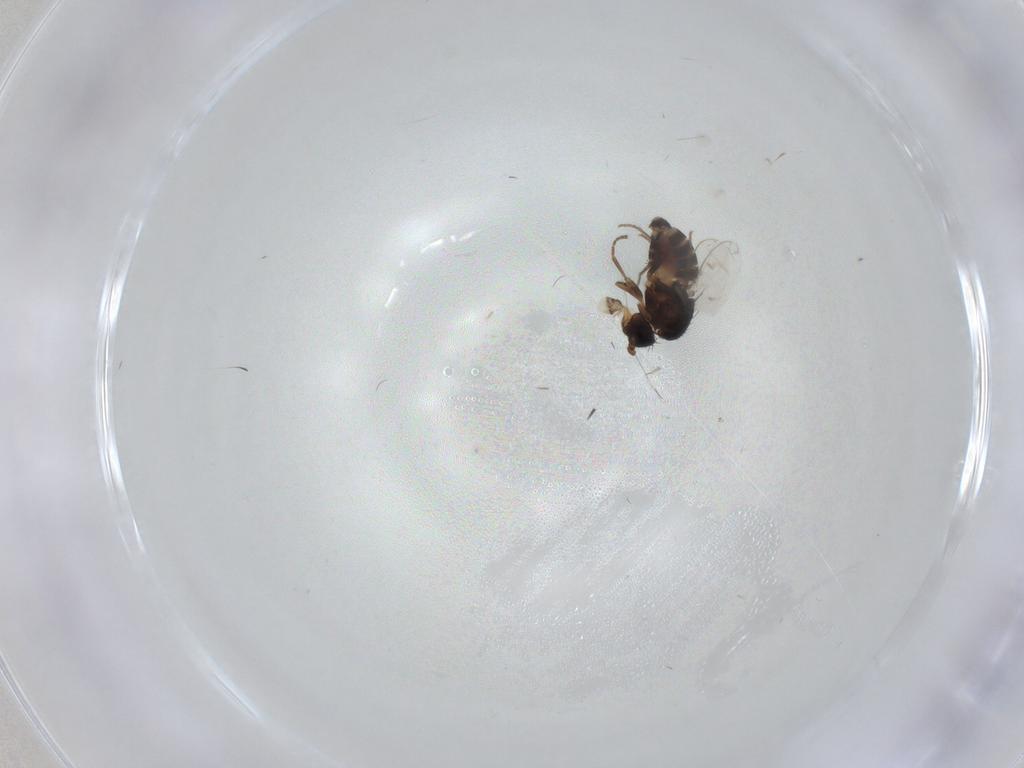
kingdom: Animalia
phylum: Arthropoda
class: Insecta
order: Diptera
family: Sphaeroceridae
